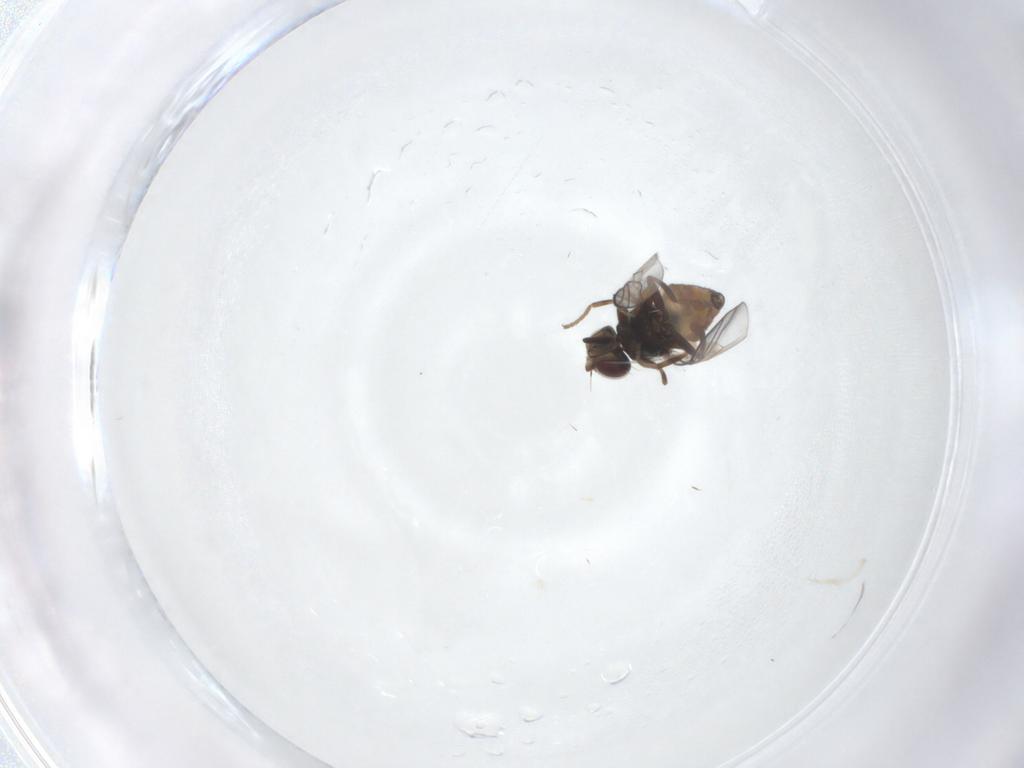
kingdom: Animalia
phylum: Arthropoda
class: Insecta
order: Diptera
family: Chloropidae
